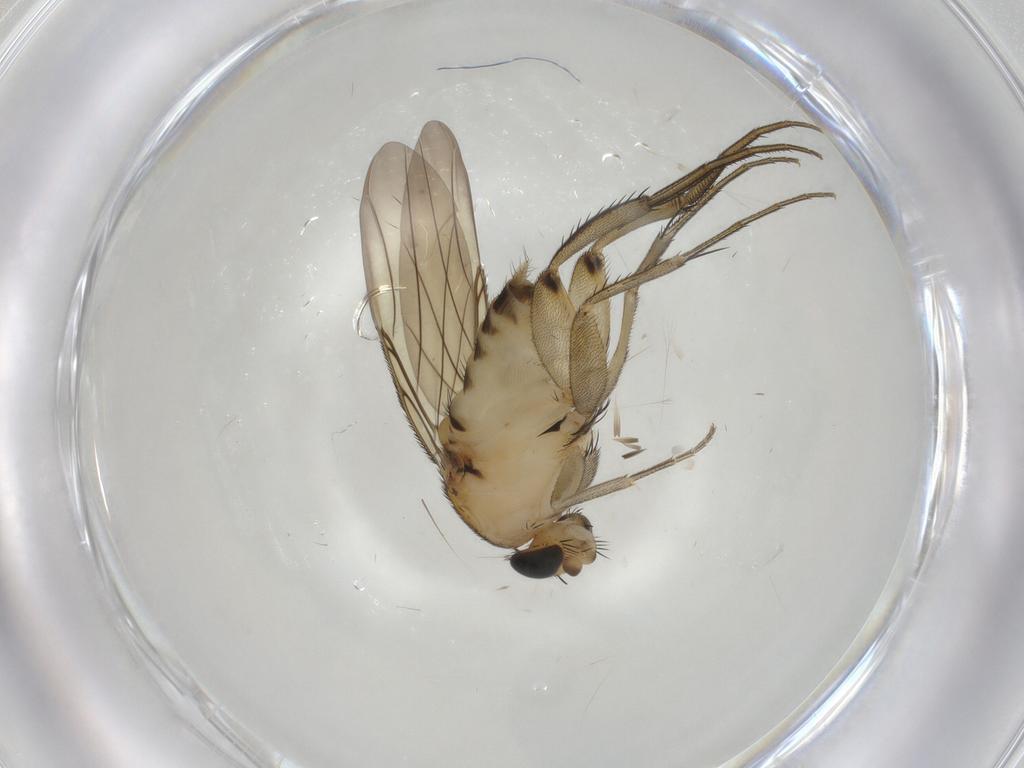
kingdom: Animalia
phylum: Arthropoda
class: Insecta
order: Diptera
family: Phoridae
